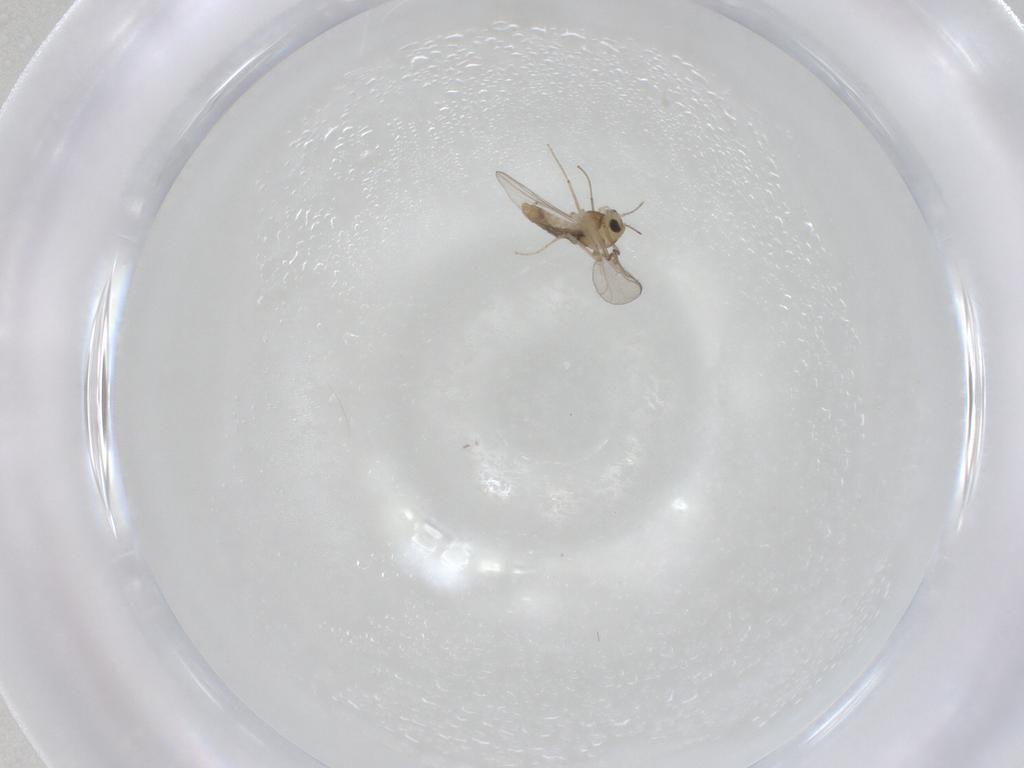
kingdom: Animalia
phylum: Arthropoda
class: Insecta
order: Diptera
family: Chironomidae
